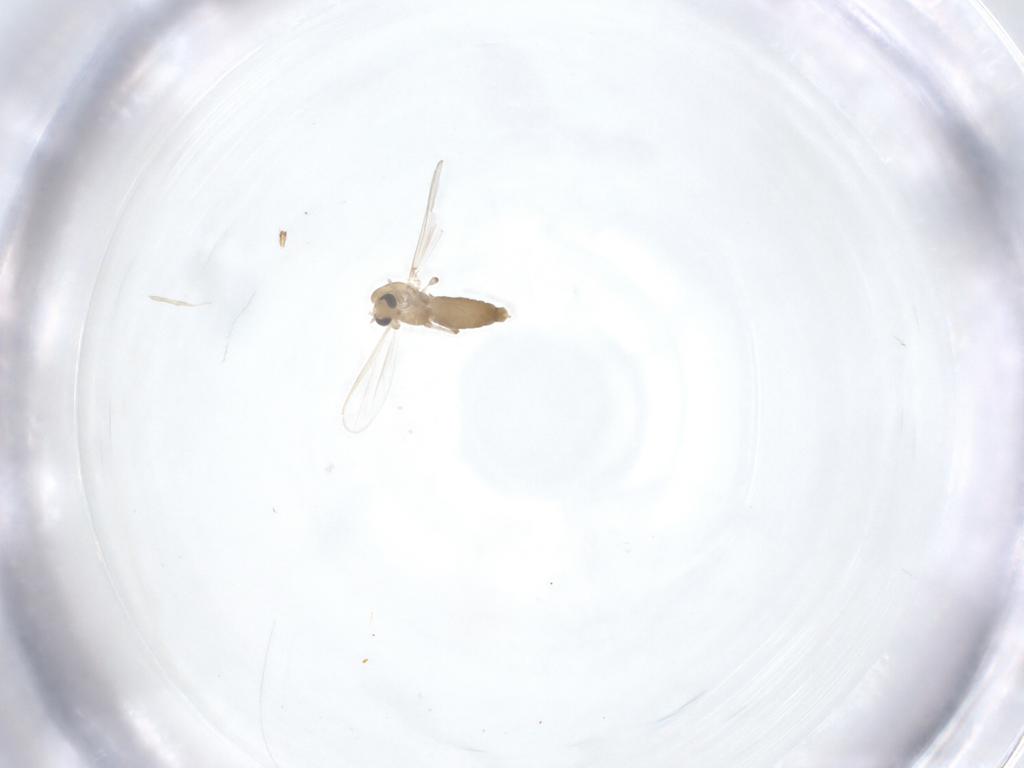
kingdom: Animalia
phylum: Arthropoda
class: Insecta
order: Diptera
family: Chironomidae
